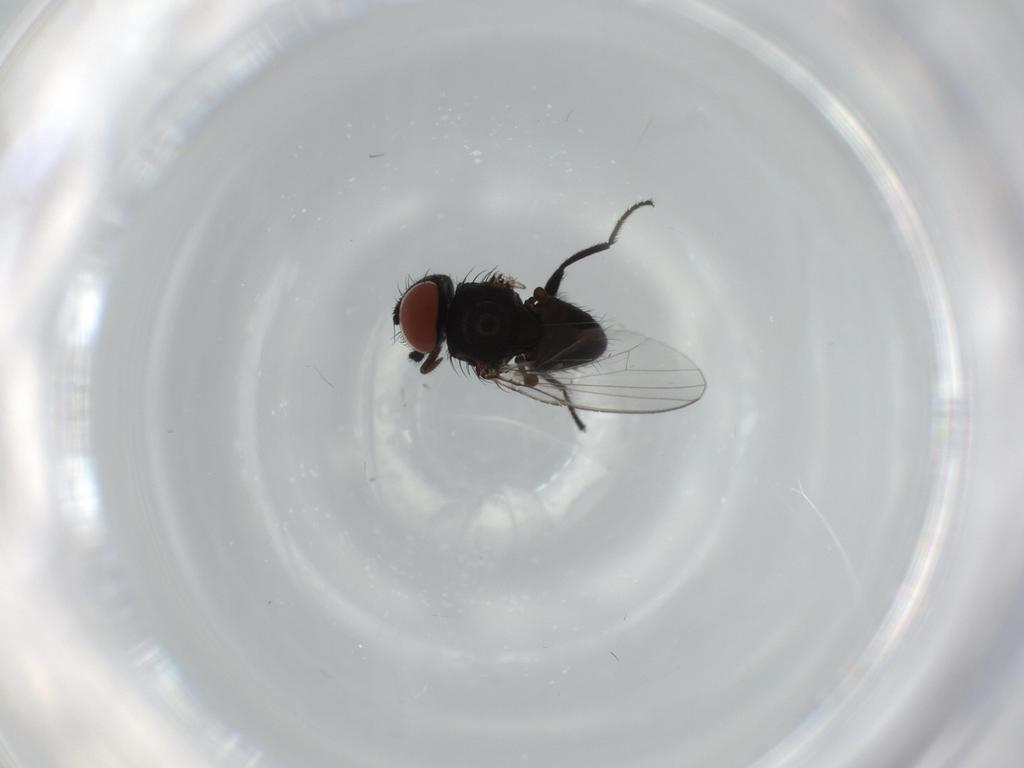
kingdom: Animalia
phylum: Arthropoda
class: Insecta
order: Diptera
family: Milichiidae
